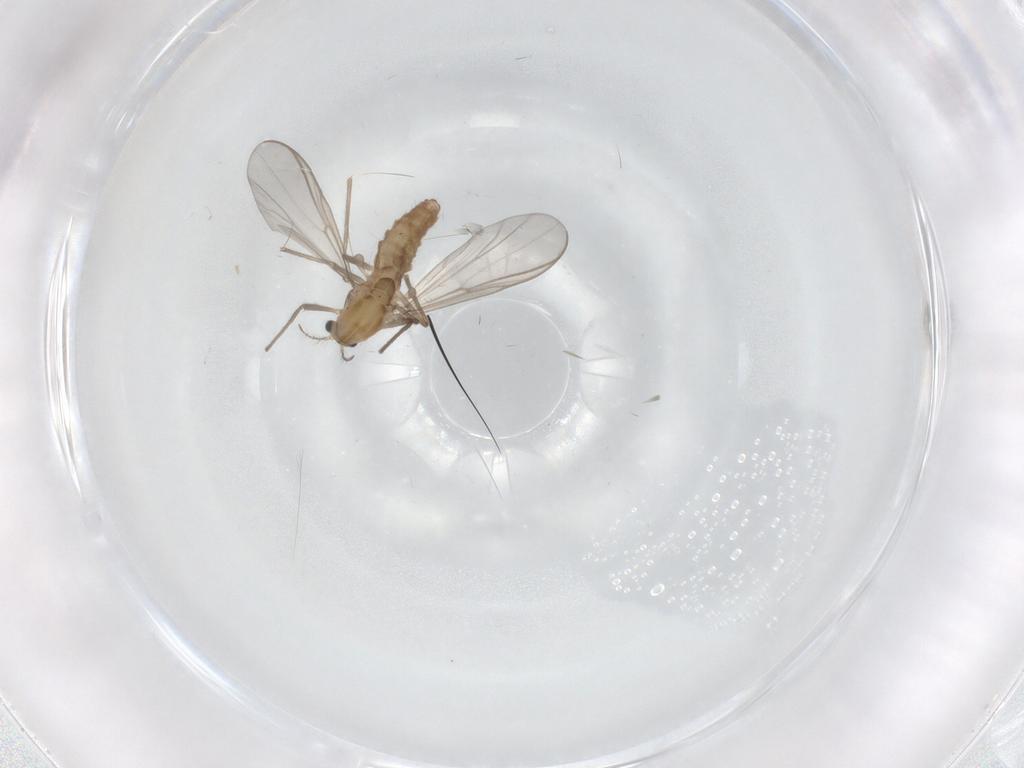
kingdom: Animalia
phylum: Arthropoda
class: Insecta
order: Diptera
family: Chironomidae
